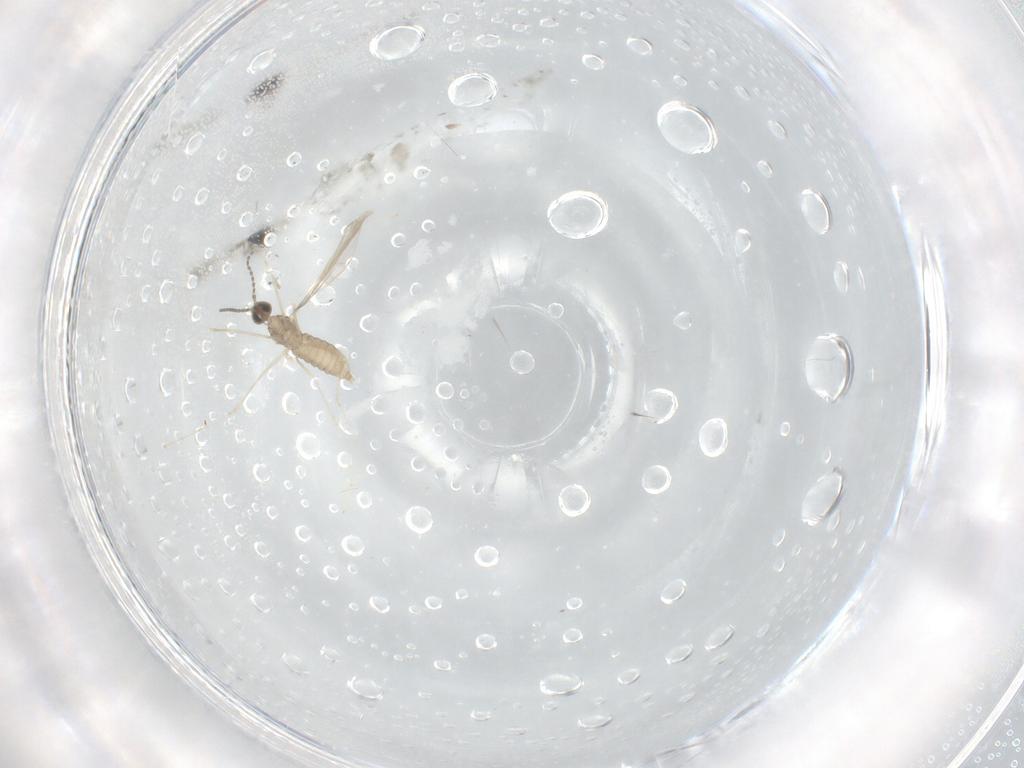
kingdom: Animalia
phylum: Arthropoda
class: Insecta
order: Diptera
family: Cecidomyiidae
